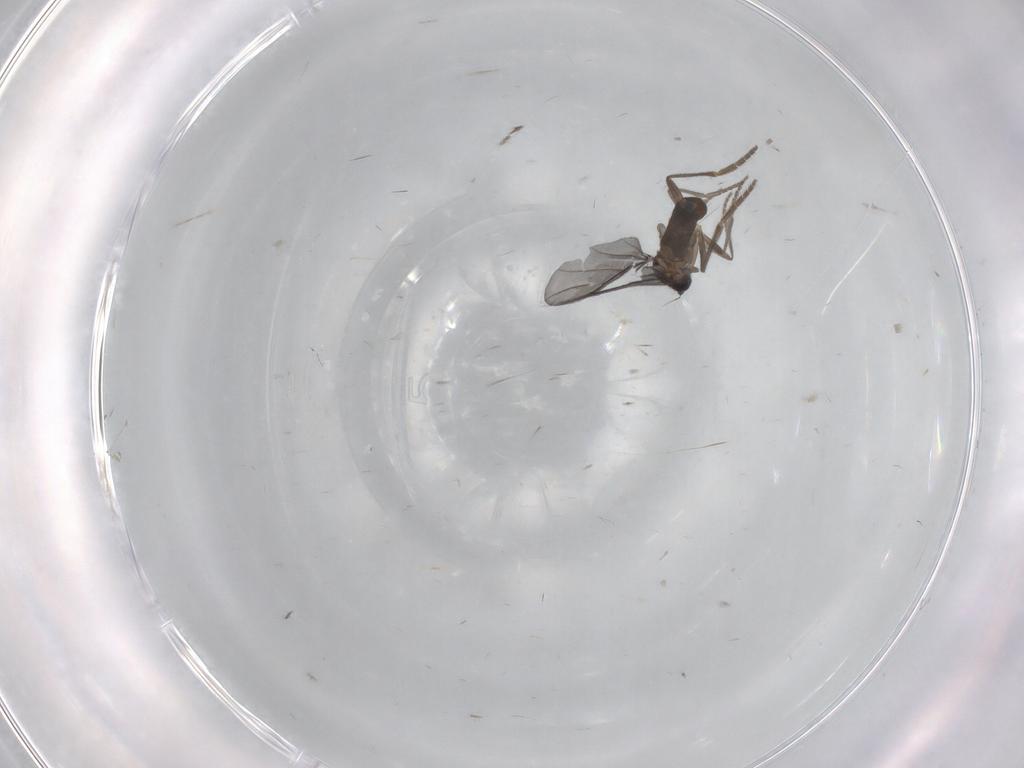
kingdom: Animalia
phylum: Arthropoda
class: Insecta
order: Diptera
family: Phoridae
